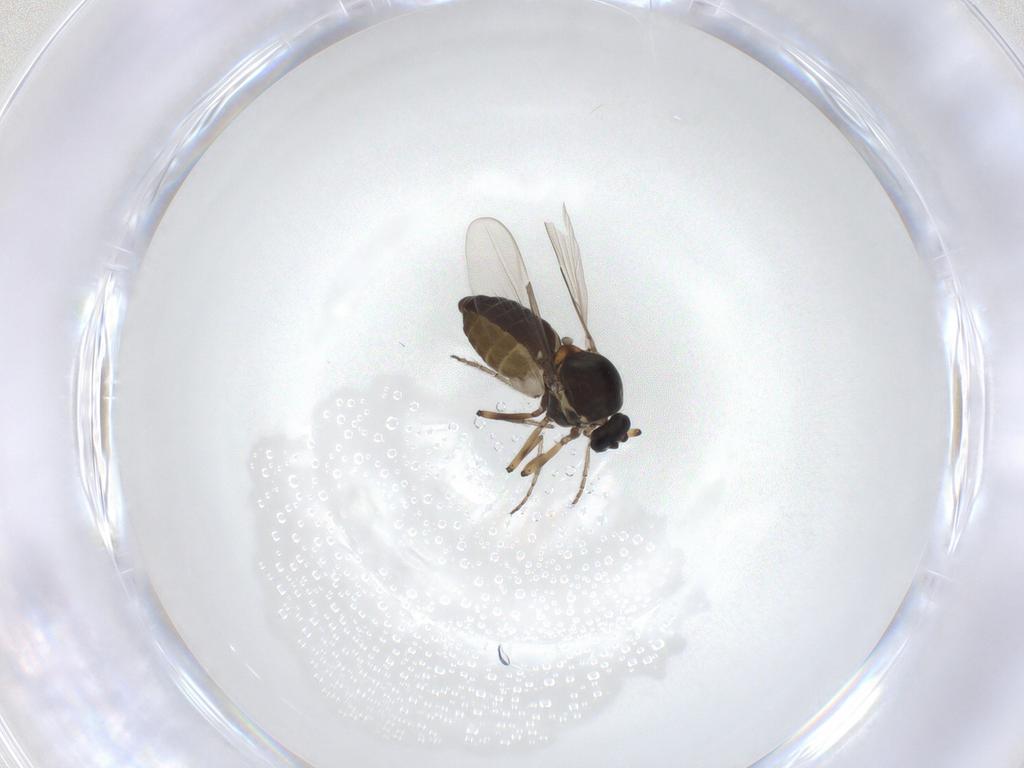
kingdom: Animalia
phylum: Arthropoda
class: Insecta
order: Diptera
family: Ceratopogonidae
